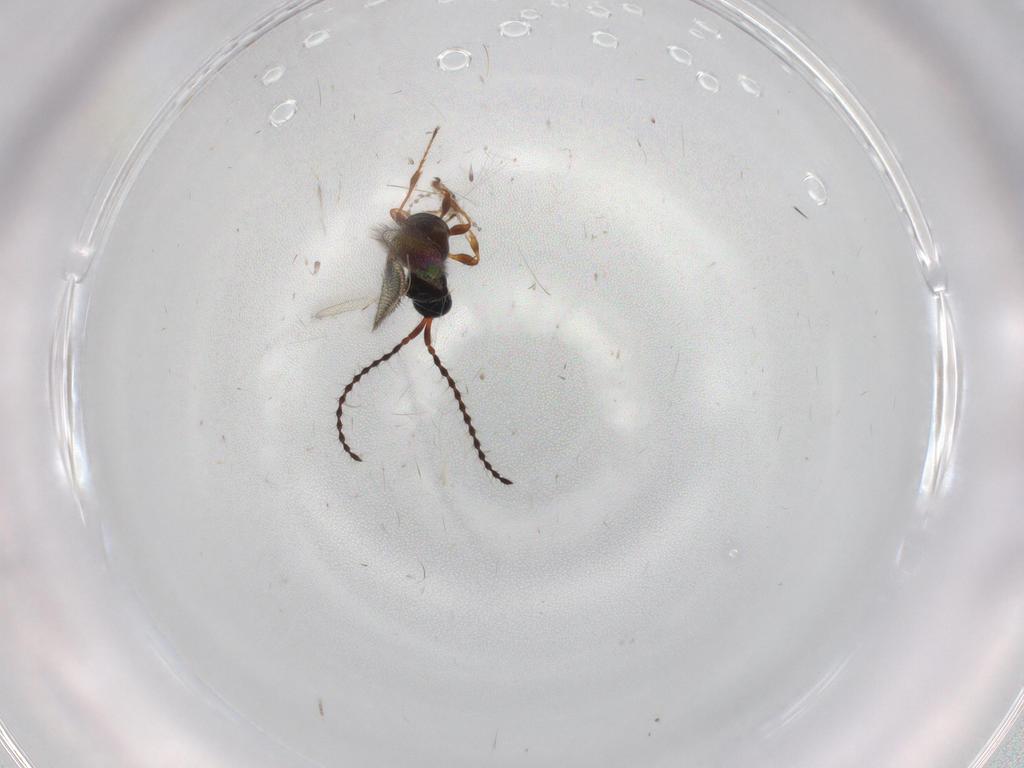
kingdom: Animalia
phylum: Arthropoda
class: Insecta
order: Hymenoptera
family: Diapriidae
